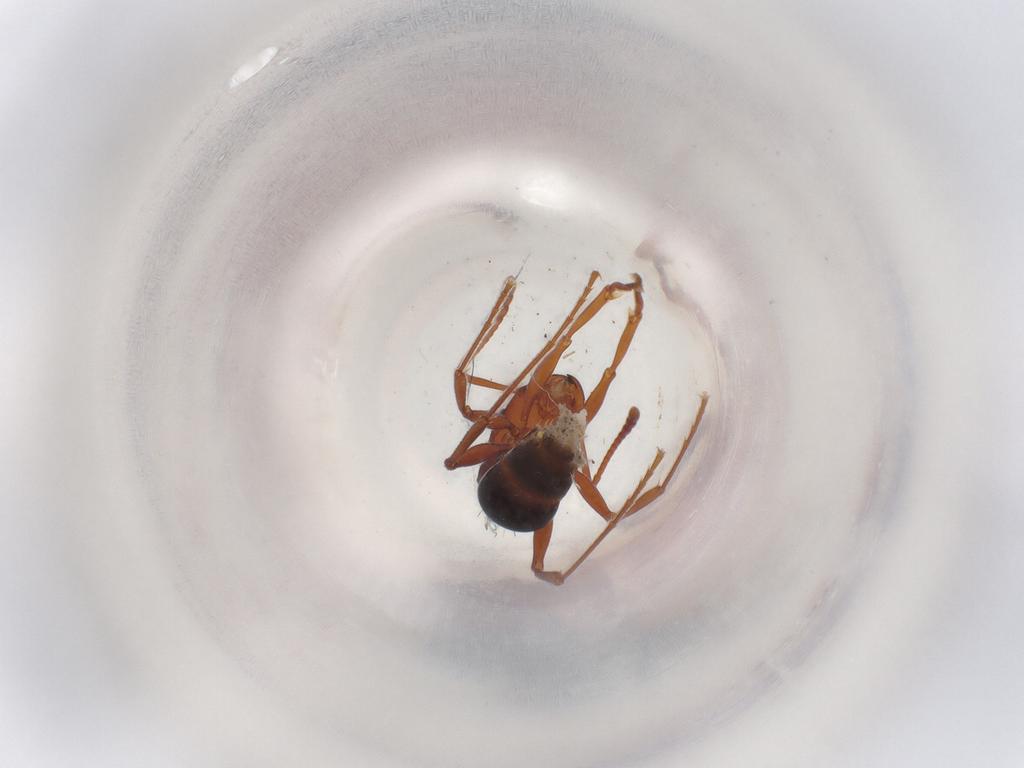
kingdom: Animalia
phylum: Arthropoda
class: Insecta
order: Hymenoptera
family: Formicidae
